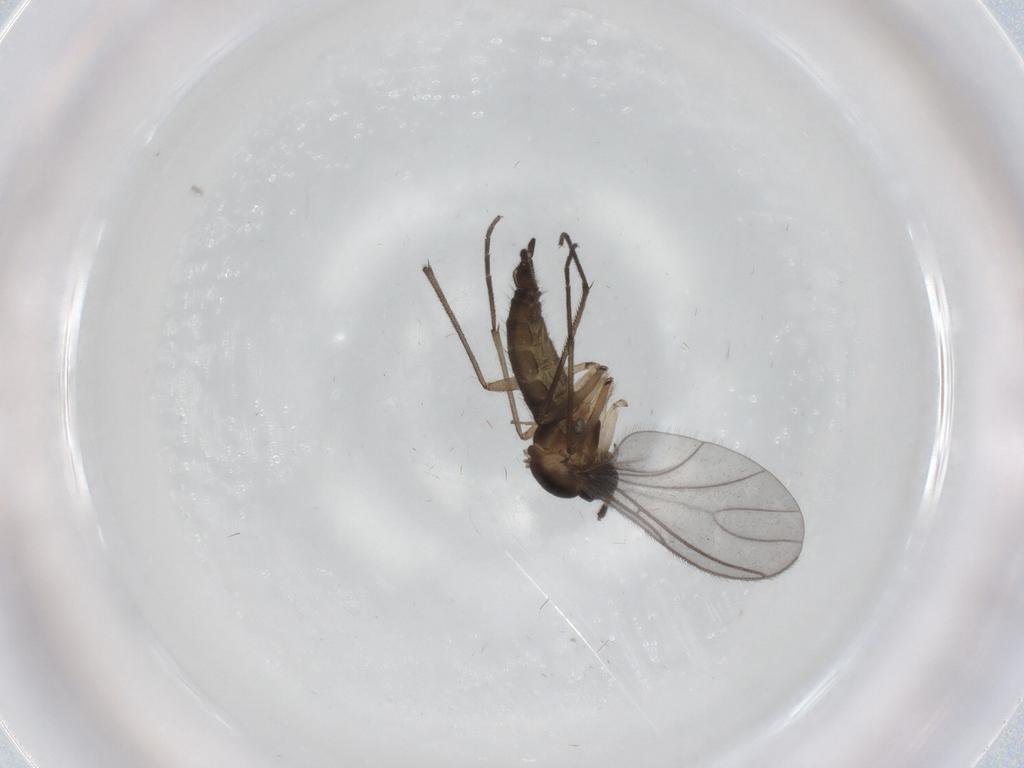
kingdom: Animalia
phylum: Arthropoda
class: Insecta
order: Diptera
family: Sciaridae
